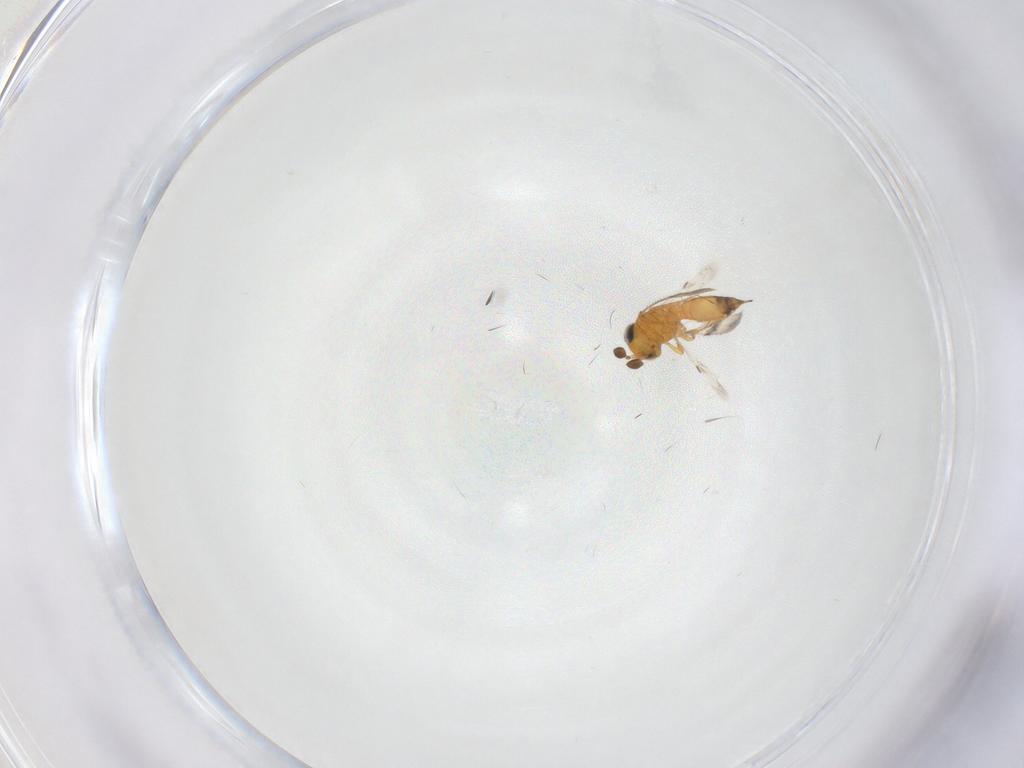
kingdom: Animalia
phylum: Arthropoda
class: Insecta
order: Hymenoptera
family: Scelionidae
